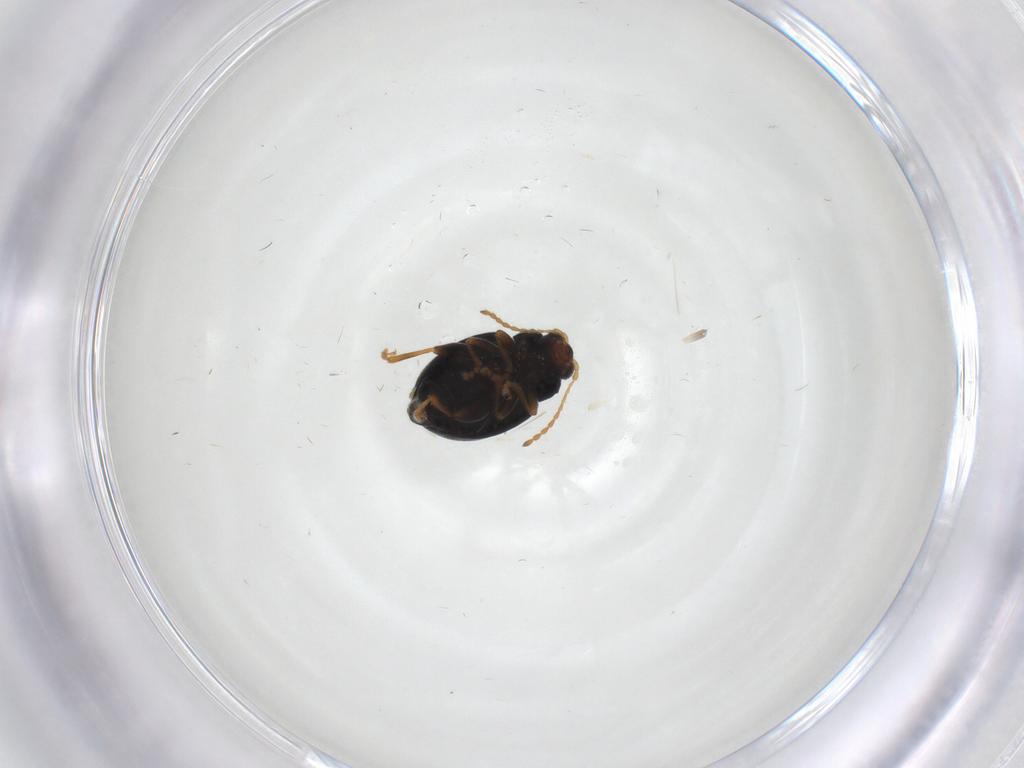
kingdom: Animalia
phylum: Arthropoda
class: Insecta
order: Coleoptera
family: Chrysomelidae
